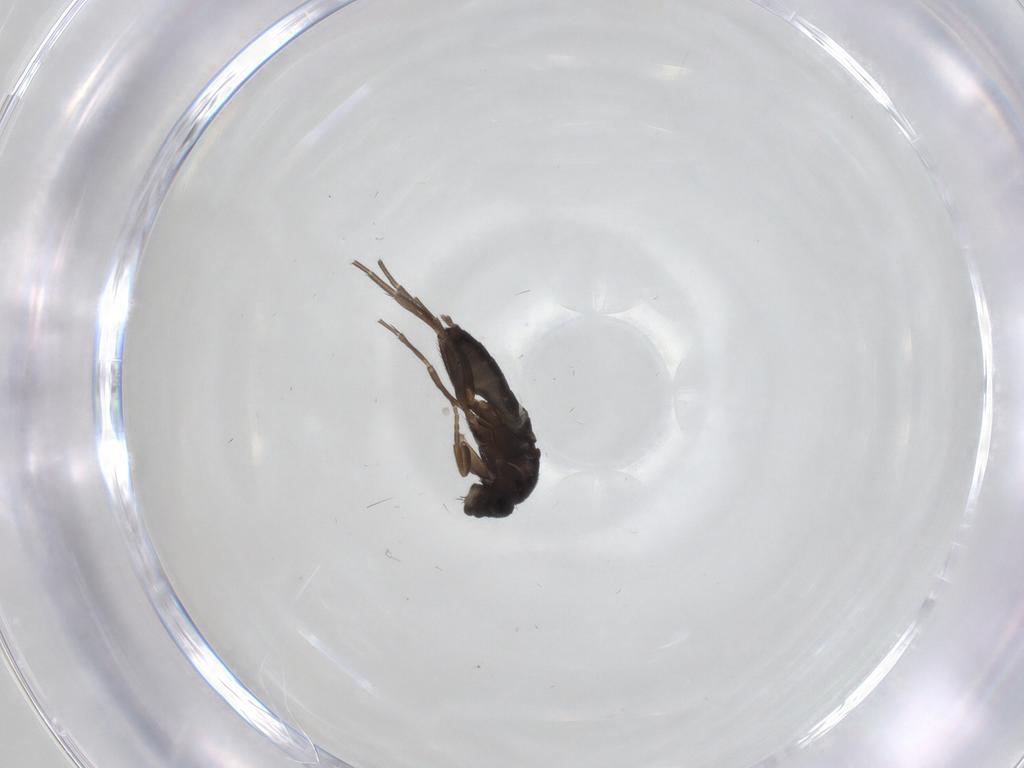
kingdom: Animalia
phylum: Arthropoda
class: Insecta
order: Diptera
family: Phoridae
